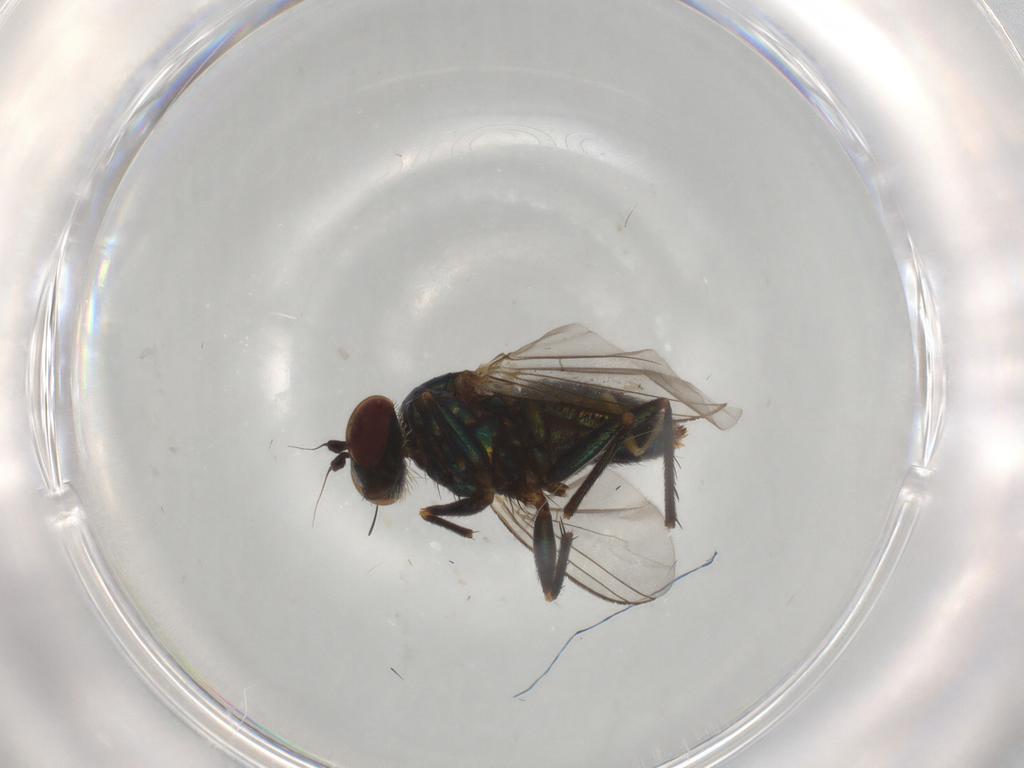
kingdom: Animalia
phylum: Arthropoda
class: Insecta
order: Diptera
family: Dolichopodidae
